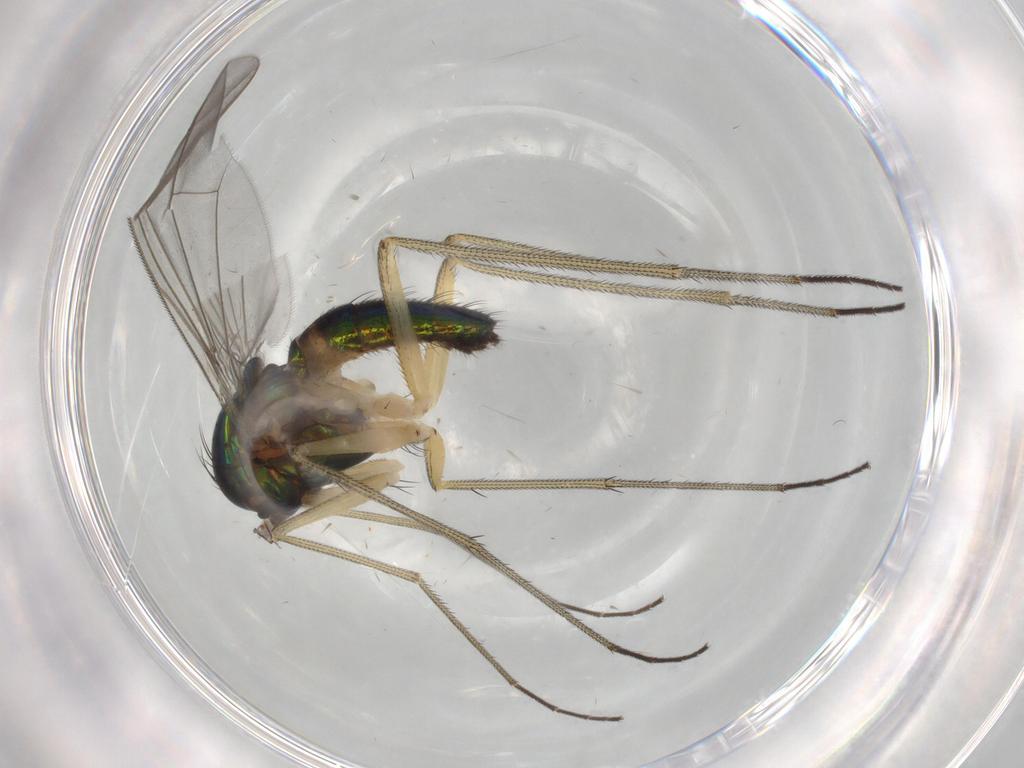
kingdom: Animalia
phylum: Arthropoda
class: Insecta
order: Diptera
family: Dolichopodidae
